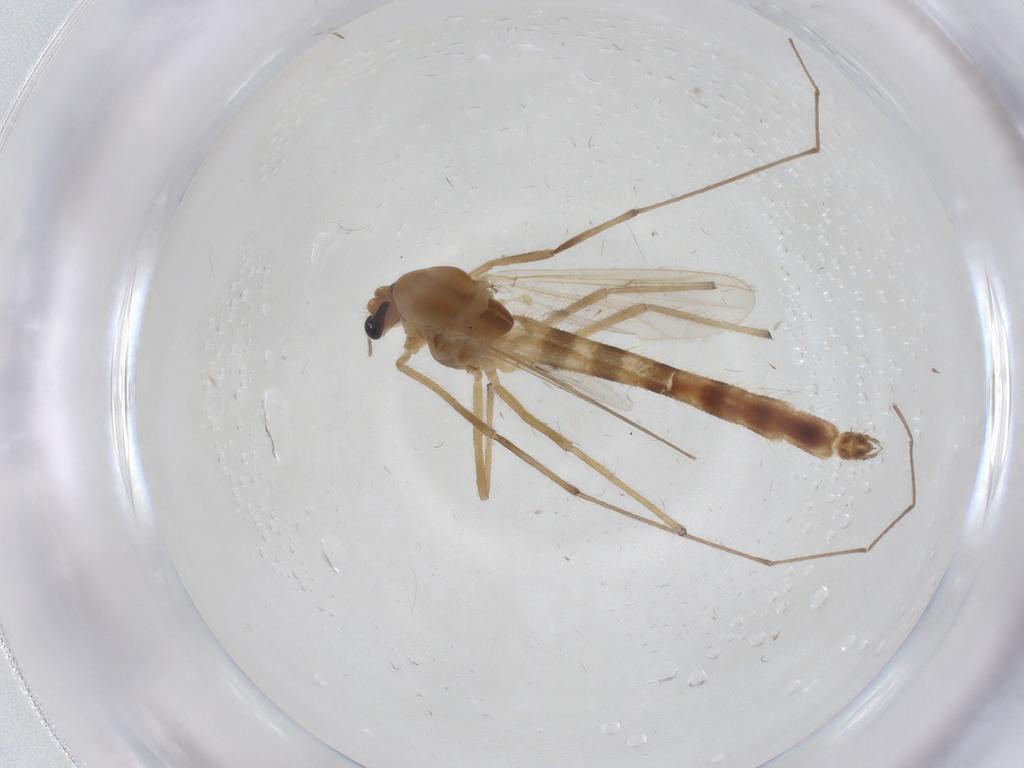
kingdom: Animalia
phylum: Arthropoda
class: Insecta
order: Diptera
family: Chironomidae
